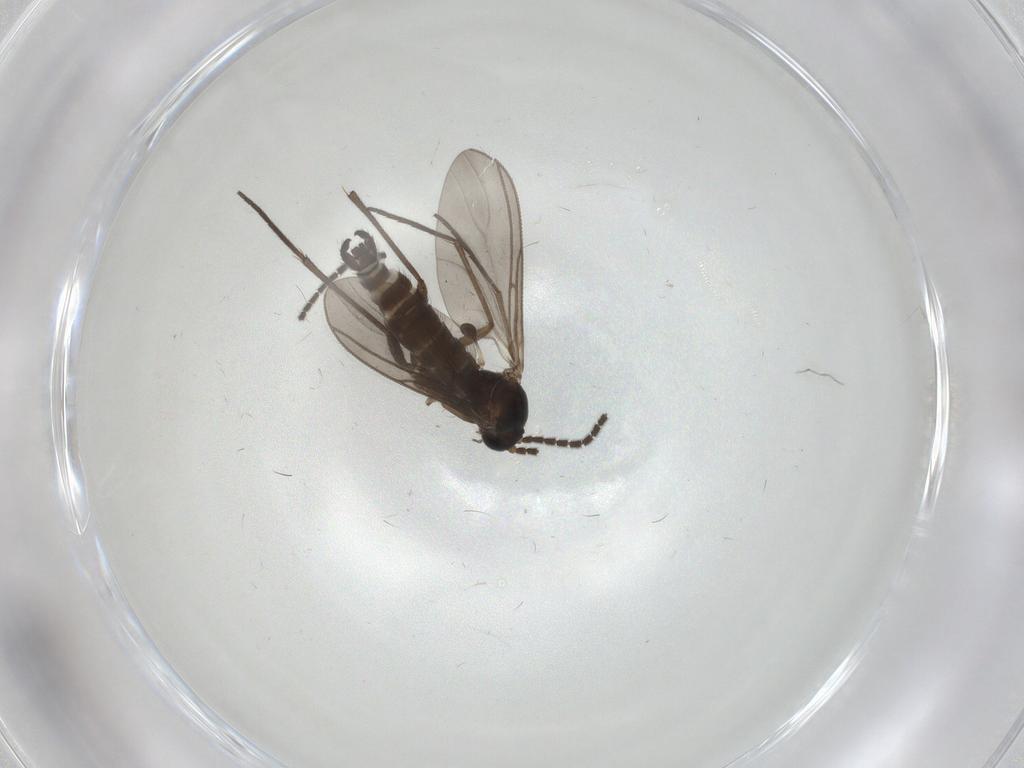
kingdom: Animalia
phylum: Arthropoda
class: Insecta
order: Diptera
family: Sciaridae
